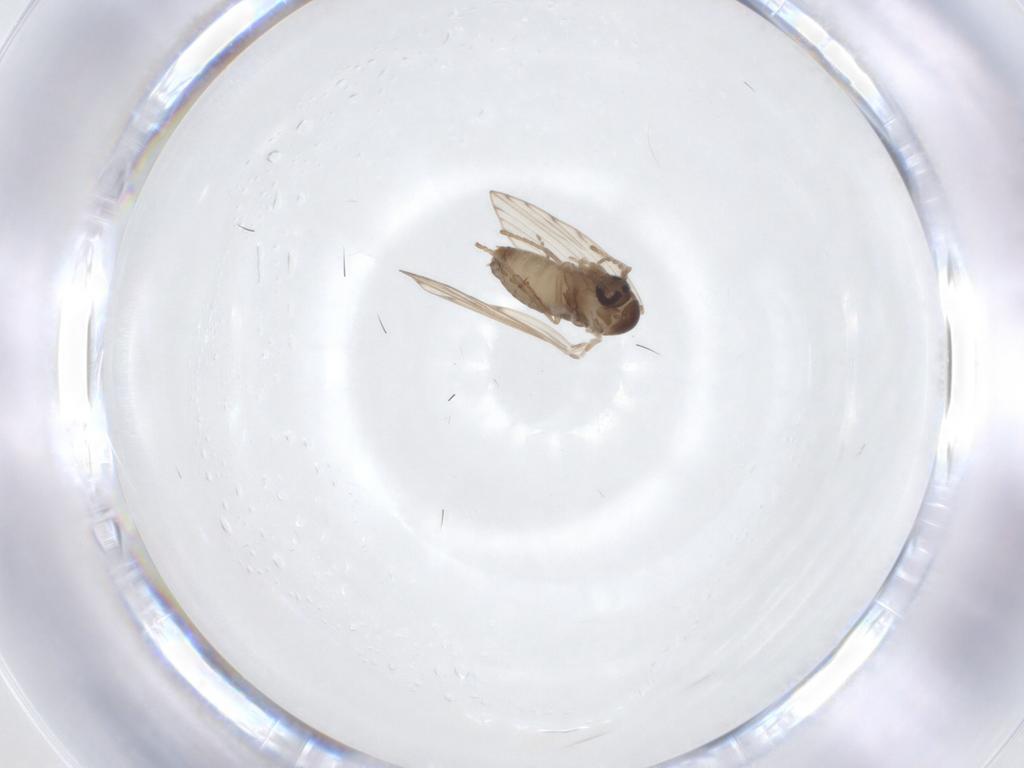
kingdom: Animalia
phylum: Arthropoda
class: Insecta
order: Diptera
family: Psychodidae
